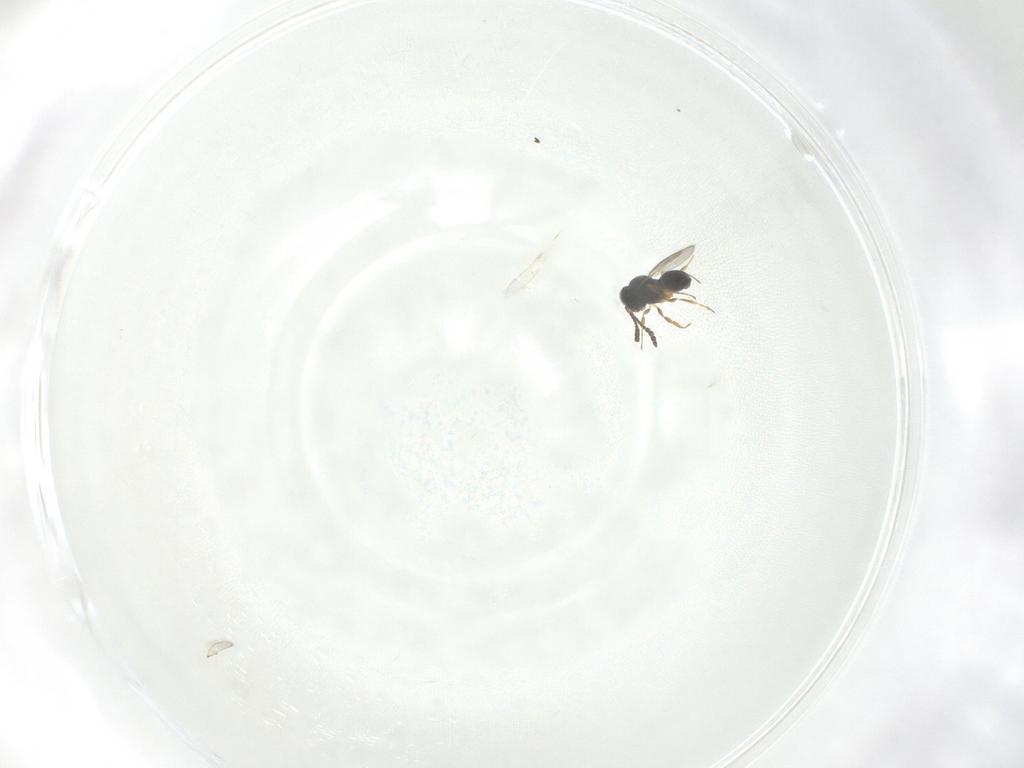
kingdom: Animalia
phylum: Arthropoda
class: Insecta
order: Hymenoptera
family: Scelionidae
